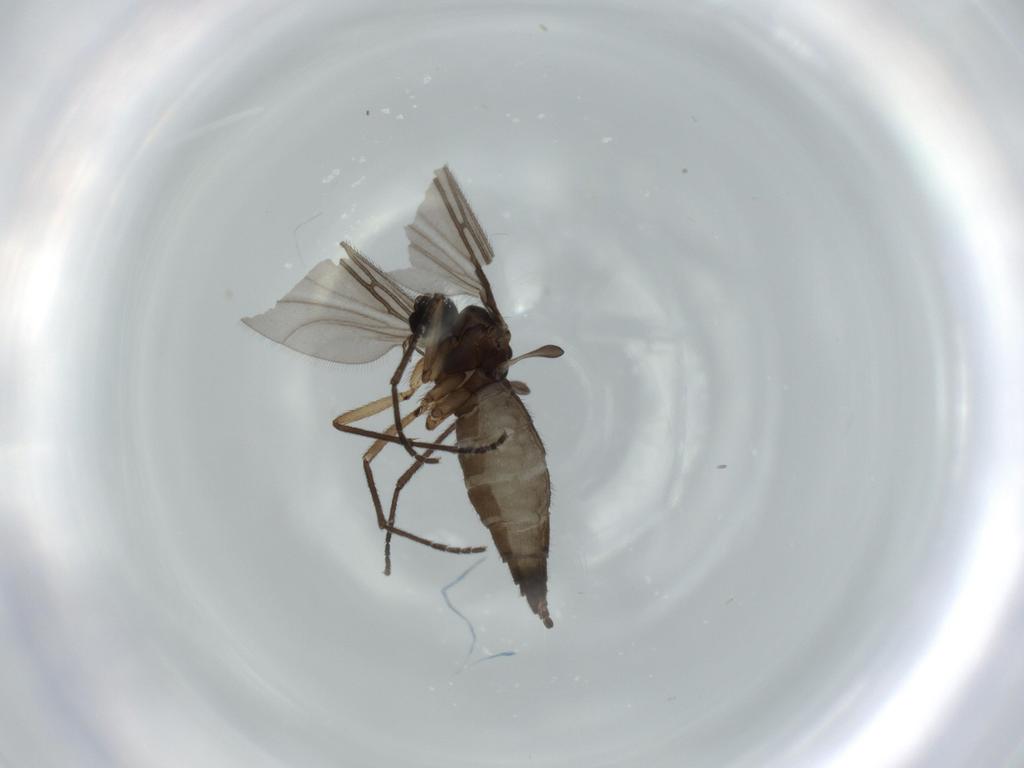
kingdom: Animalia
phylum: Arthropoda
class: Insecta
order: Diptera
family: Sciaridae
